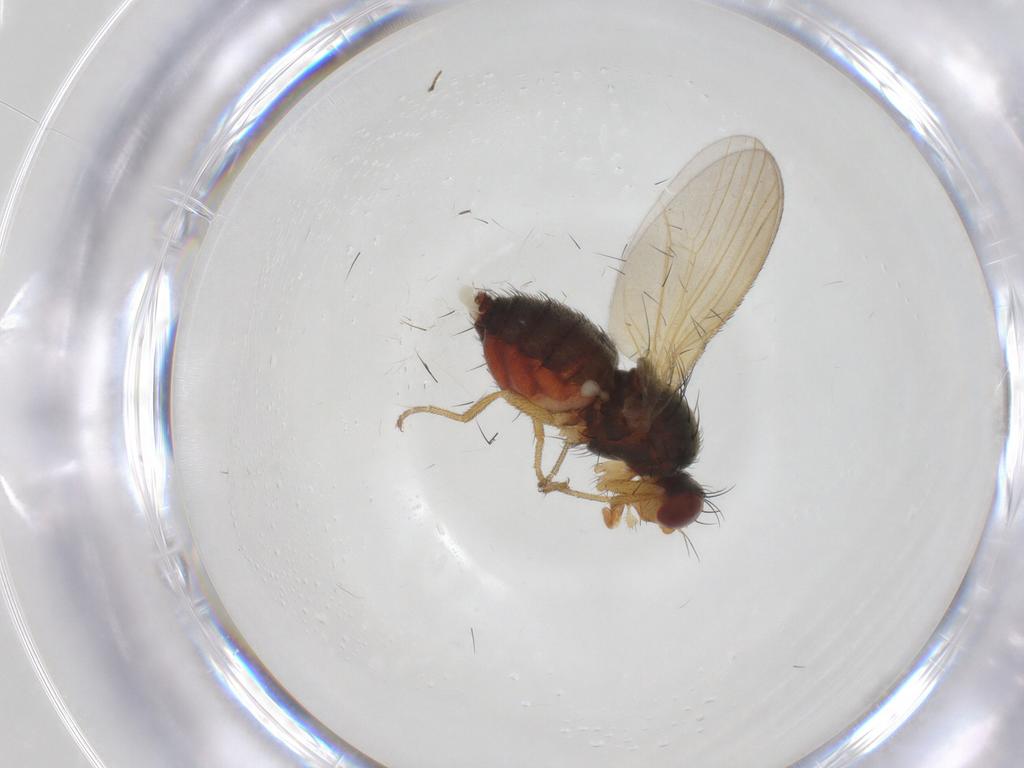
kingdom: Animalia
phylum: Arthropoda
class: Insecta
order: Diptera
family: Heleomyzidae
